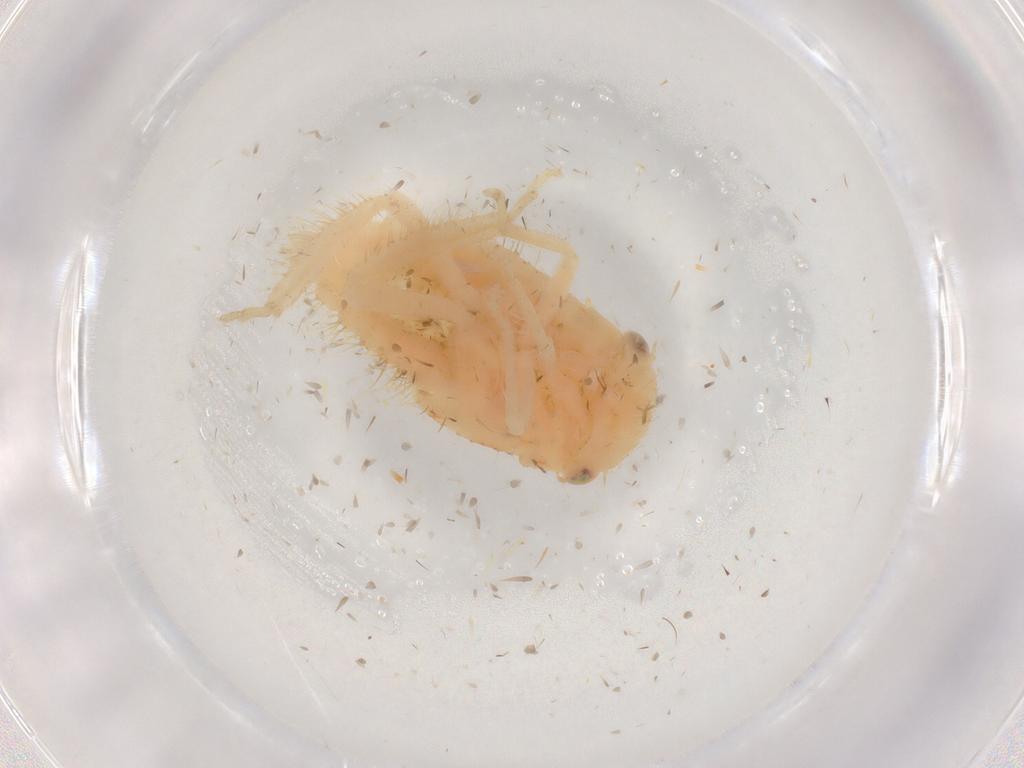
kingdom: Animalia
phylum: Arthropoda
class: Insecta
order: Hemiptera
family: Cicadellidae
